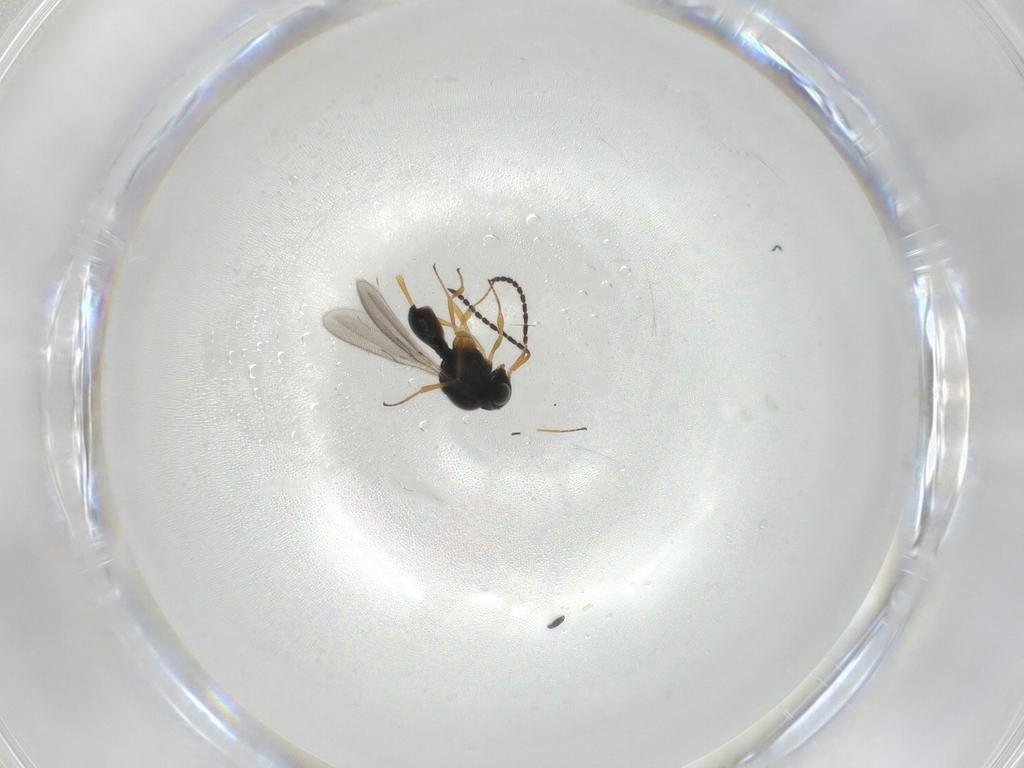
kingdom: Animalia
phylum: Arthropoda
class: Insecta
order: Hymenoptera
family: Scelionidae
